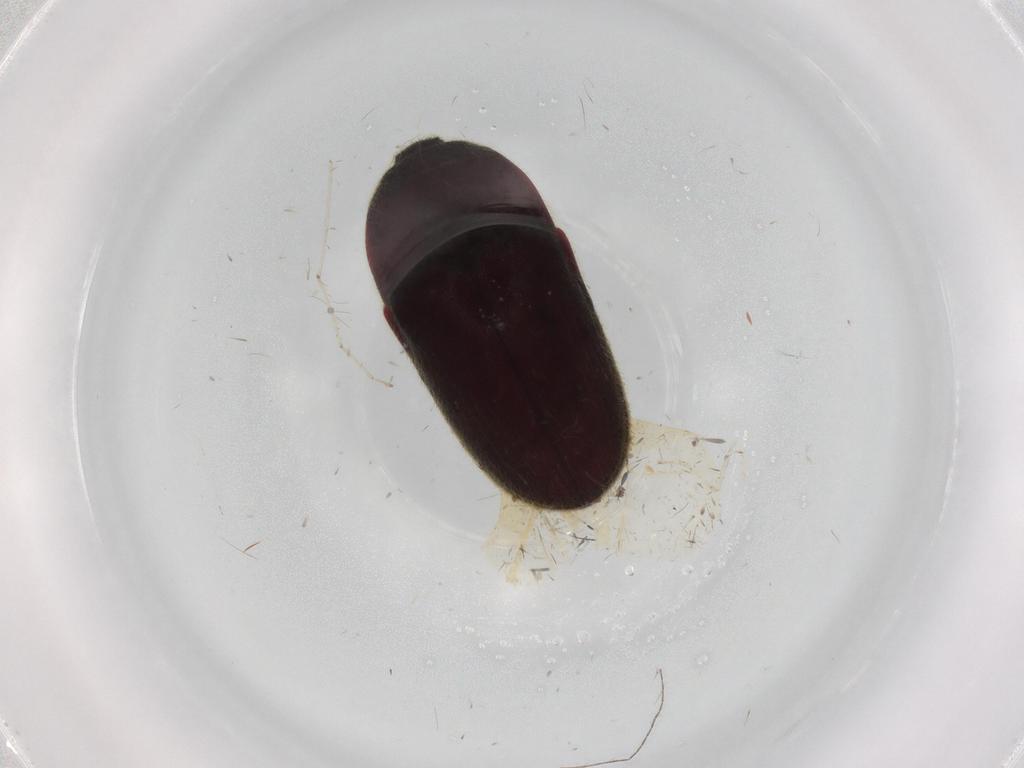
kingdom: Animalia
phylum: Arthropoda
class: Insecta
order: Coleoptera
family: Throscidae
